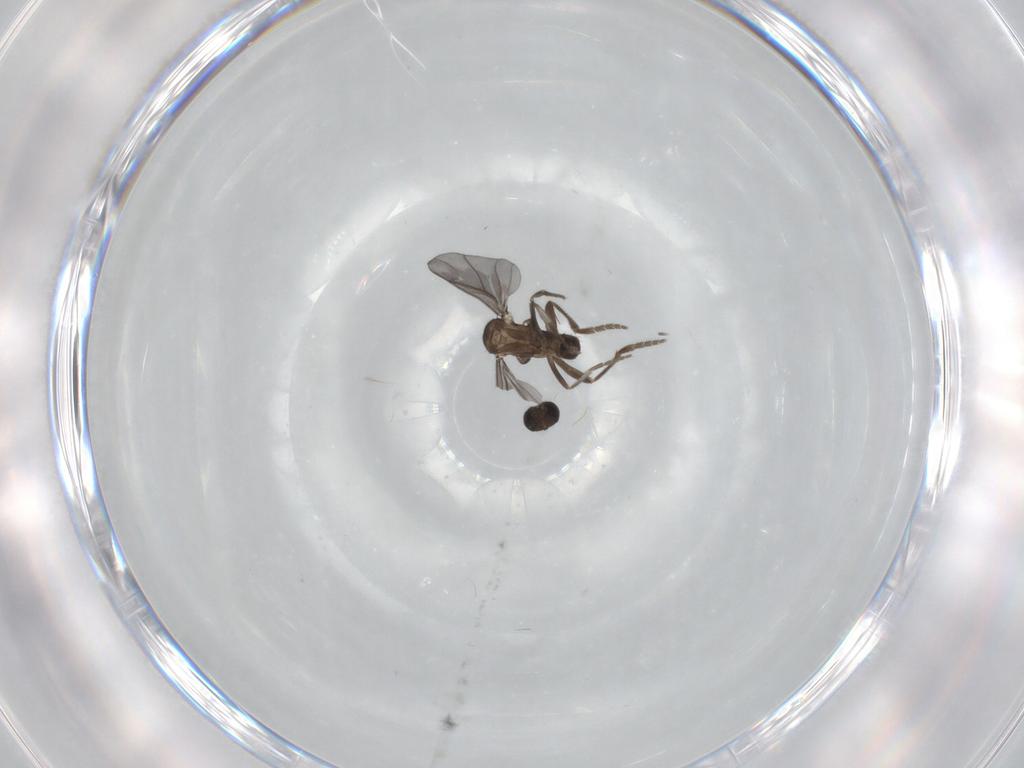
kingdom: Animalia
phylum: Arthropoda
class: Insecta
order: Diptera
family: Phoridae
